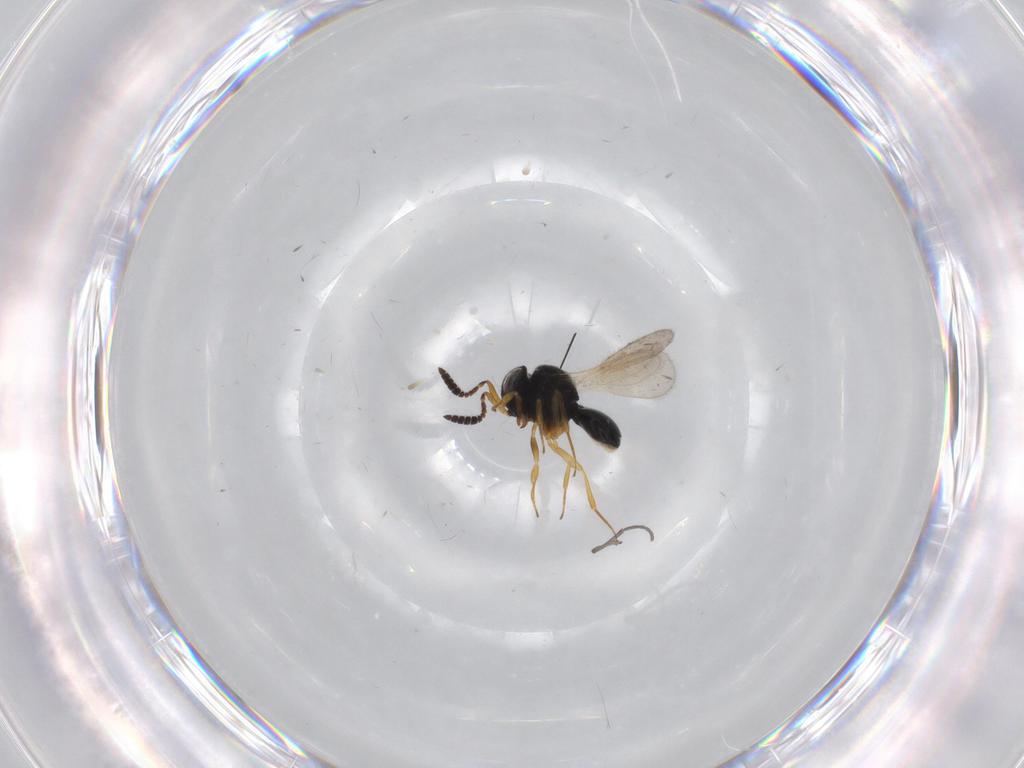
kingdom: Animalia
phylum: Arthropoda
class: Insecta
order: Hymenoptera
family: Scelionidae
